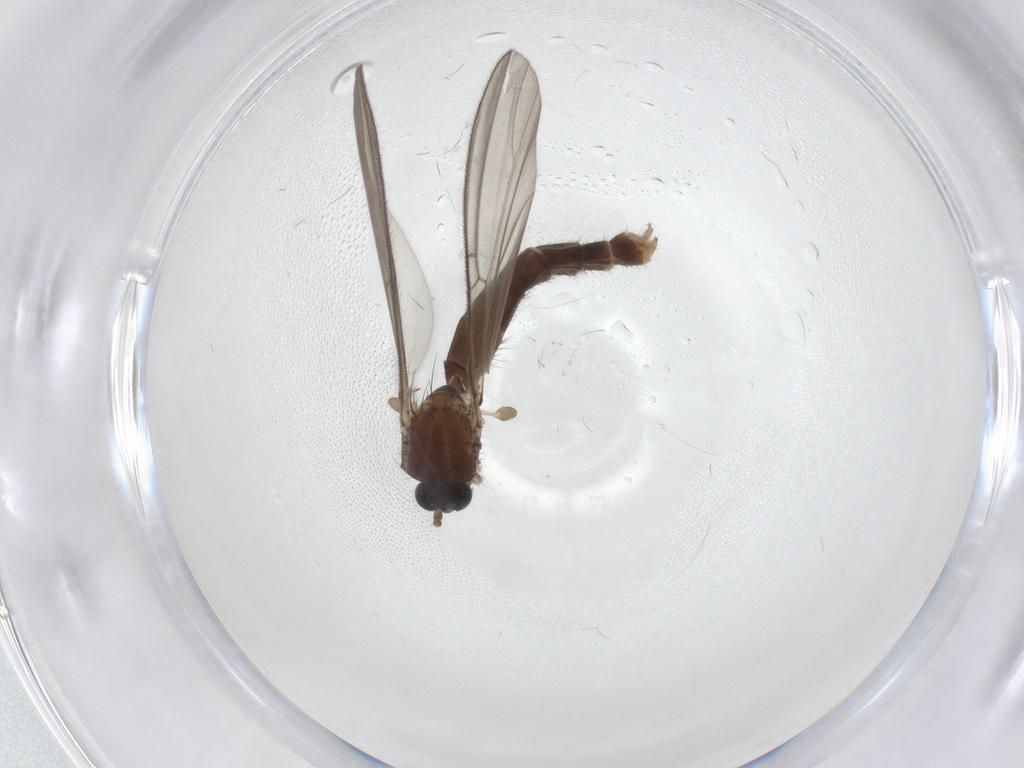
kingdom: Animalia
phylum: Arthropoda
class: Insecta
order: Diptera
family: Mycetophilidae
